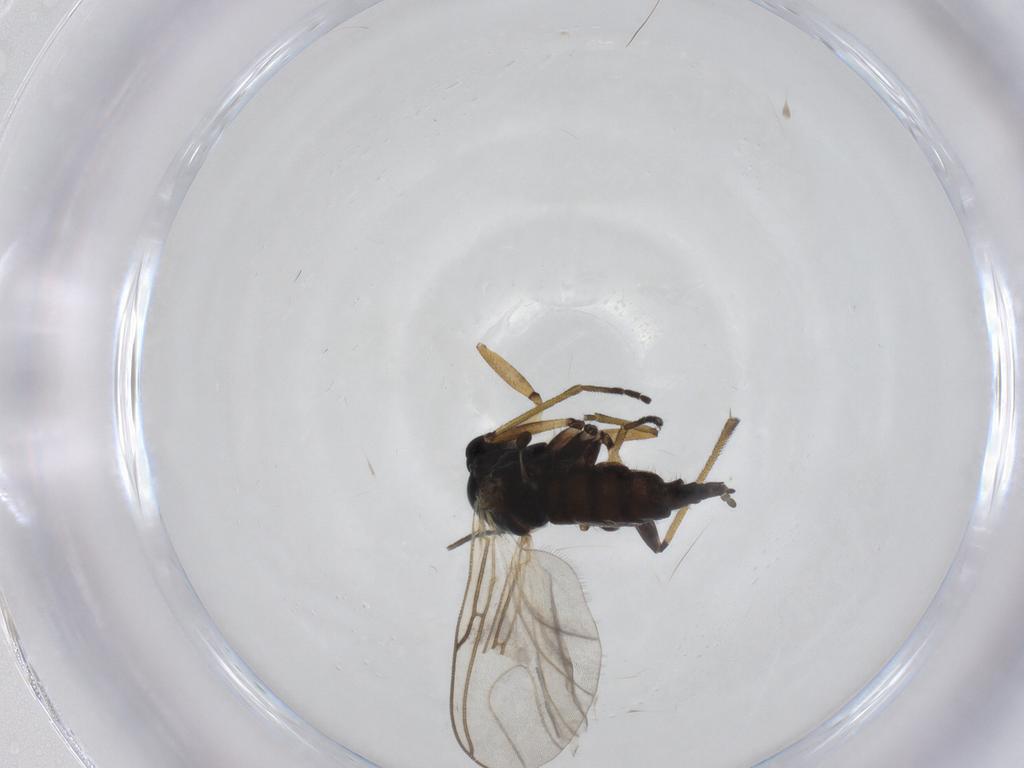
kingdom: Animalia
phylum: Arthropoda
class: Insecta
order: Diptera
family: Sciaridae
